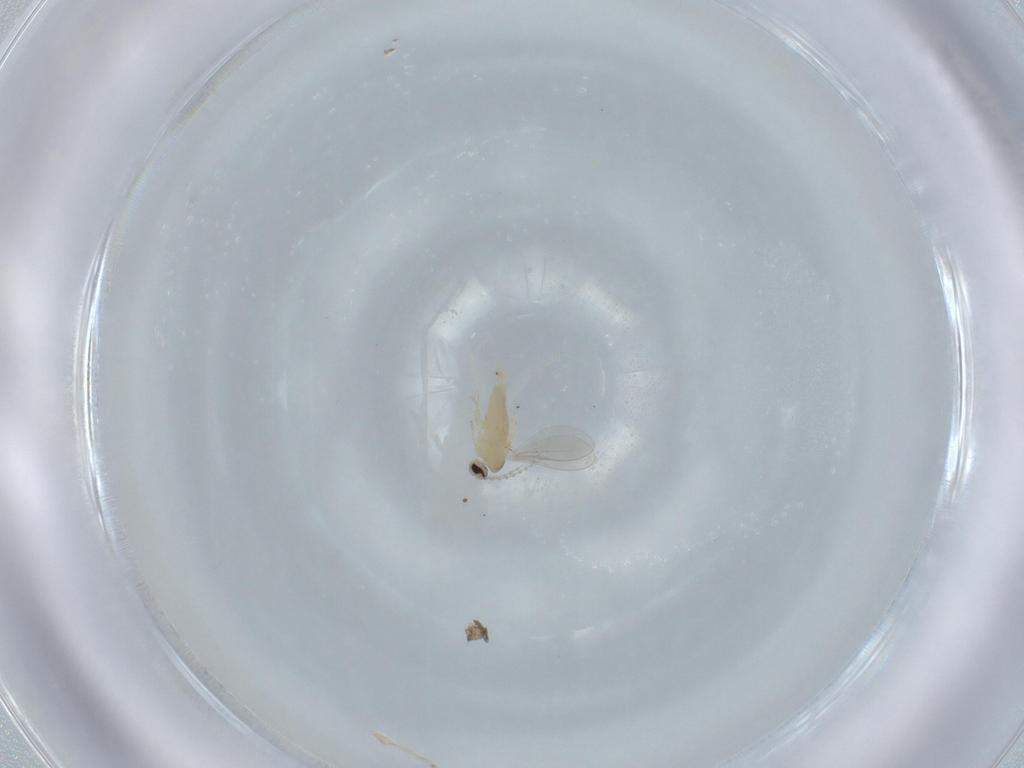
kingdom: Animalia
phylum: Arthropoda
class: Insecta
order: Diptera
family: Cecidomyiidae
